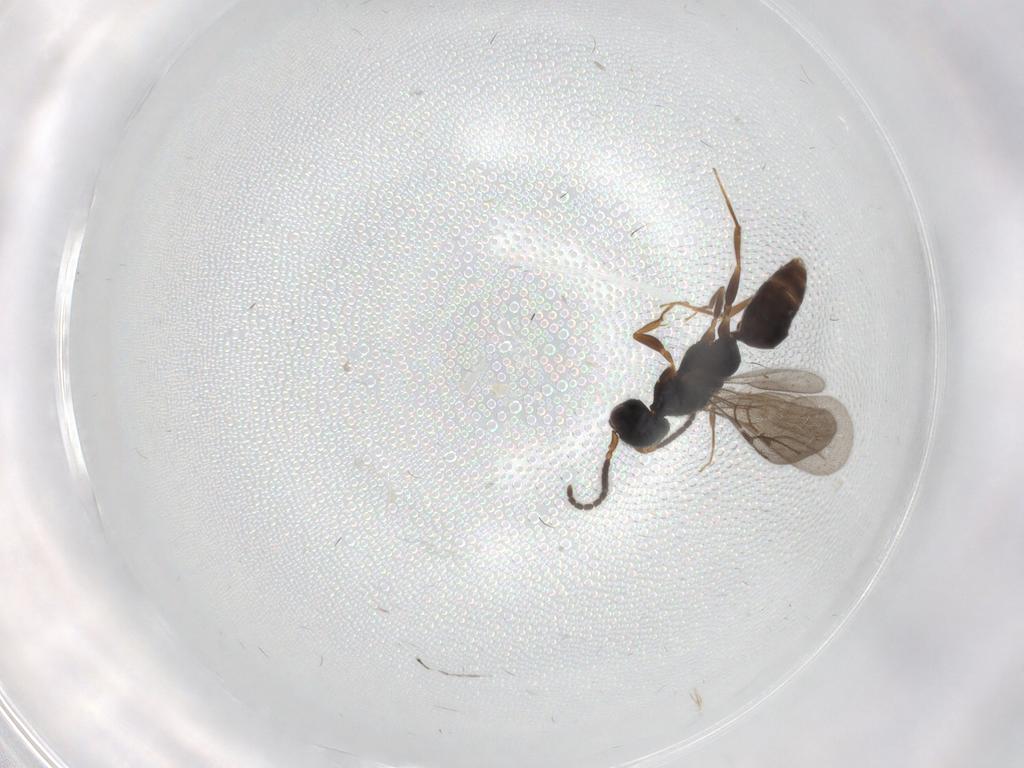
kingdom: Animalia
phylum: Arthropoda
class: Insecta
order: Hymenoptera
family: Bethylidae
